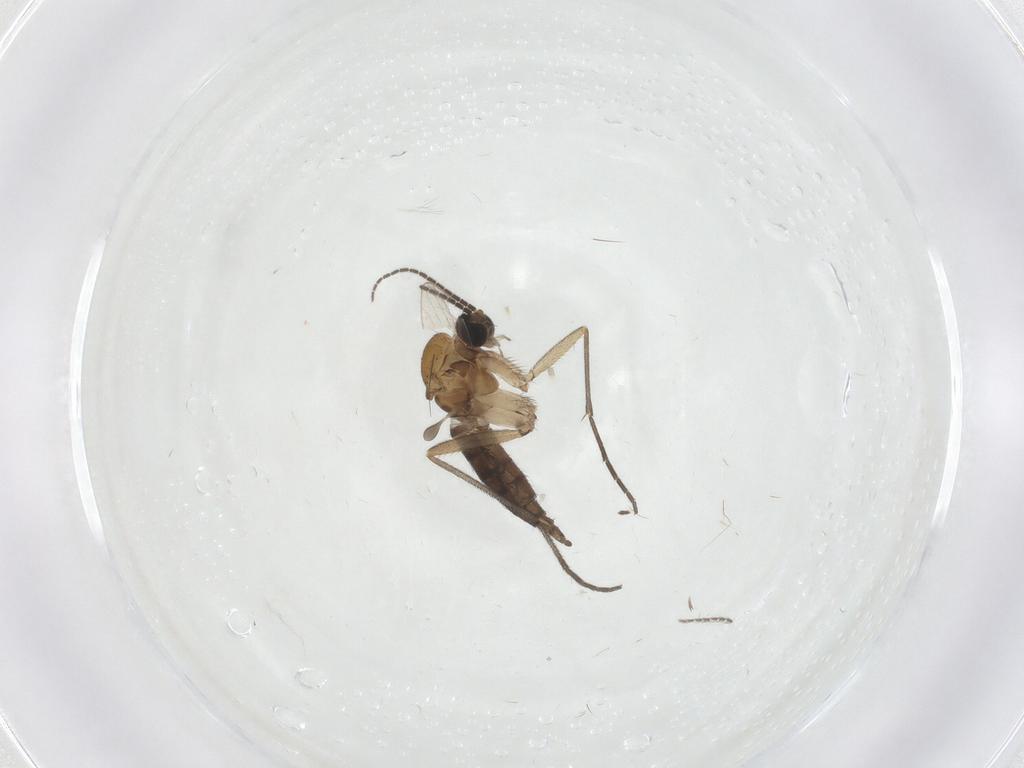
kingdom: Animalia
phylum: Arthropoda
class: Insecta
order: Diptera
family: Sciaridae
